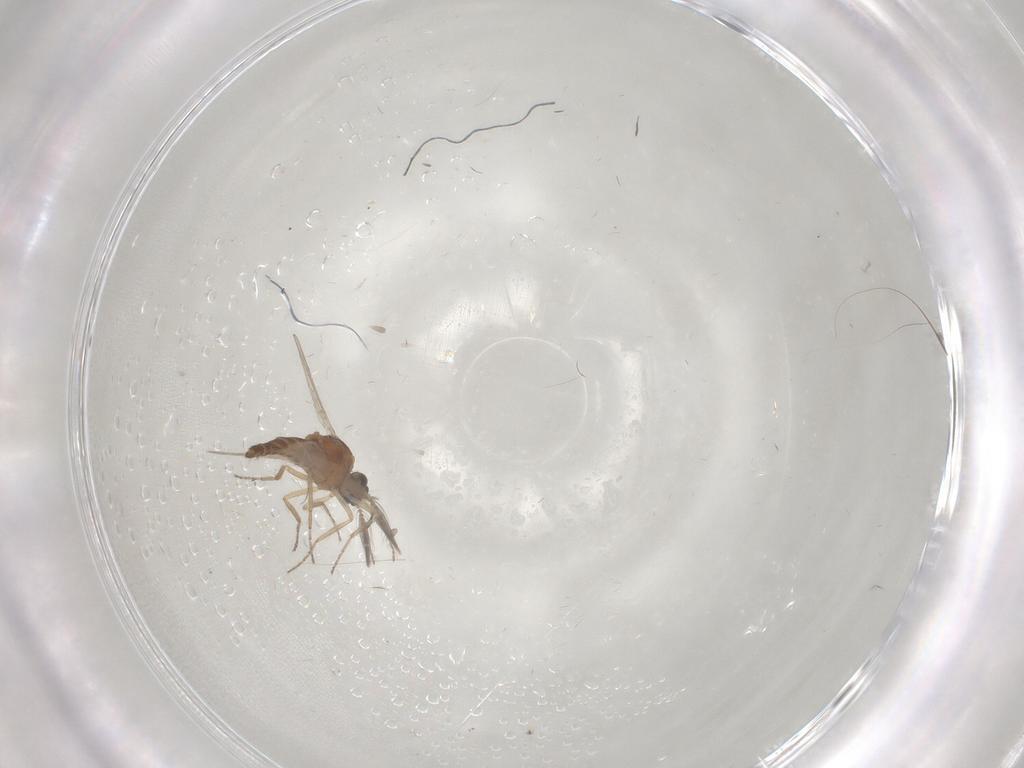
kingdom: Animalia
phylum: Arthropoda
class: Insecta
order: Diptera
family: Ceratopogonidae
